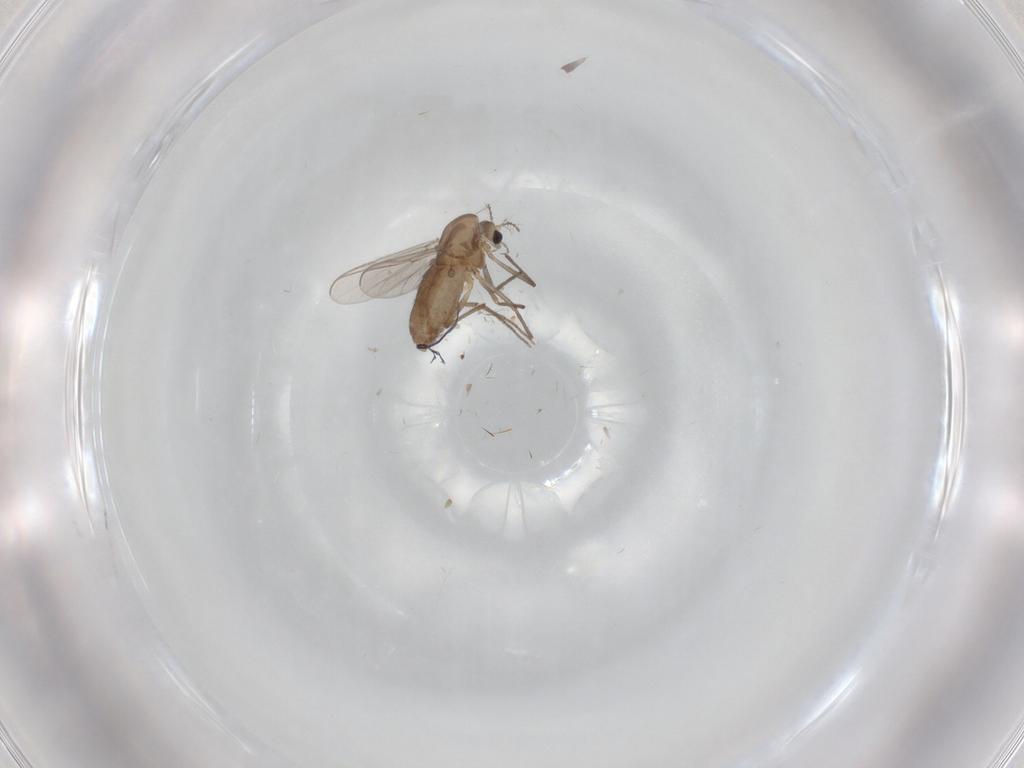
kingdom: Animalia
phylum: Arthropoda
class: Insecta
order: Diptera
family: Chironomidae
